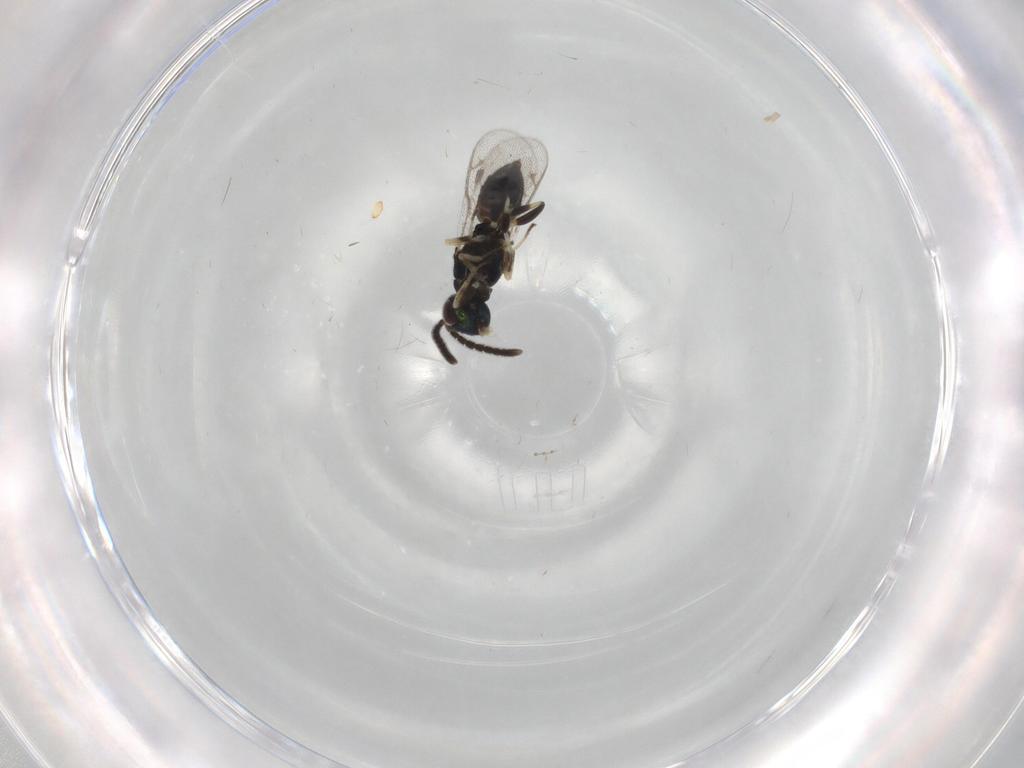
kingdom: Animalia
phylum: Arthropoda
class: Insecta
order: Hymenoptera
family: Eupelmidae
